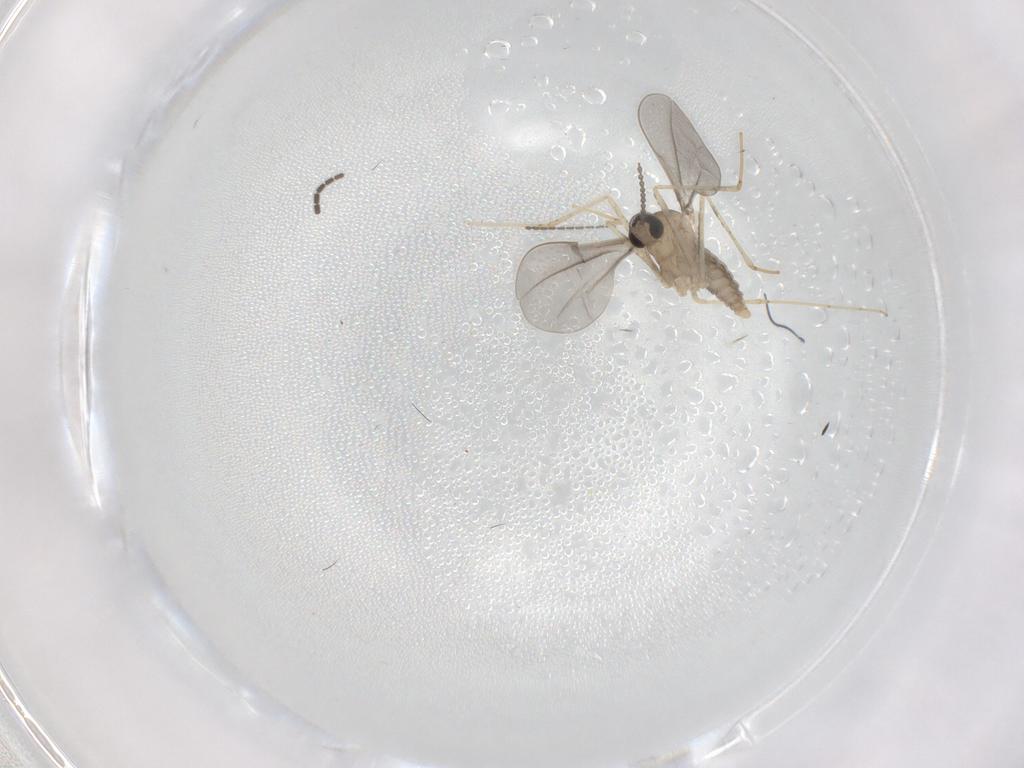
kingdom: Animalia
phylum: Arthropoda
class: Insecta
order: Diptera
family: Cecidomyiidae
